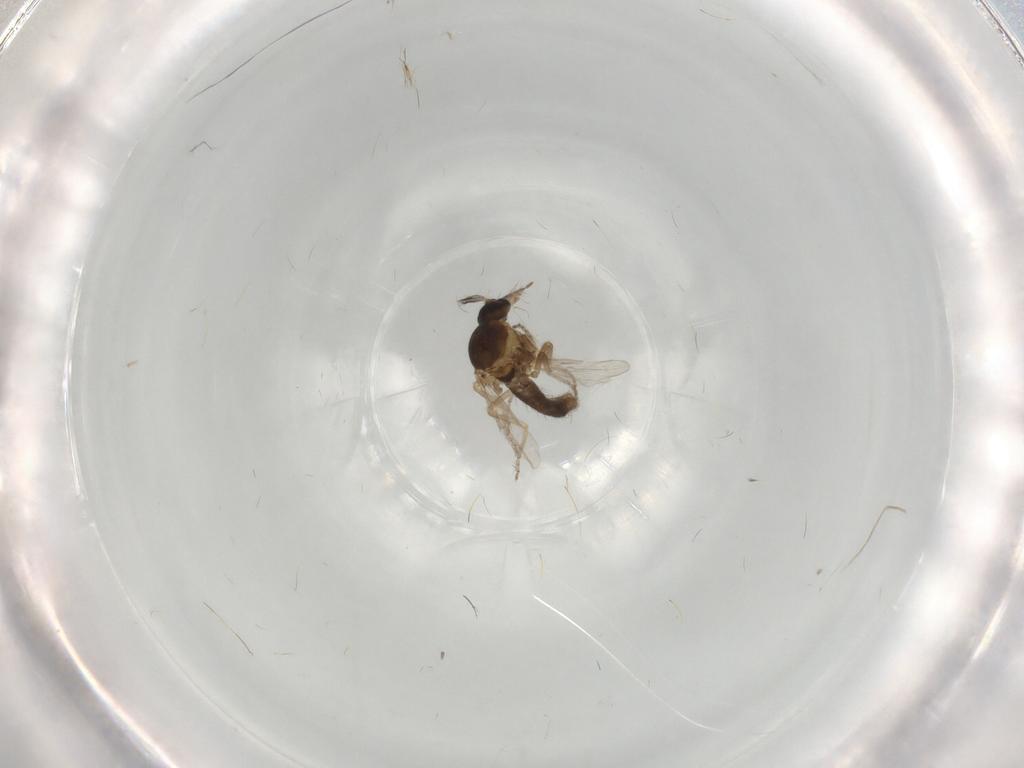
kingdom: Animalia
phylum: Arthropoda
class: Insecta
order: Diptera
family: Ceratopogonidae
